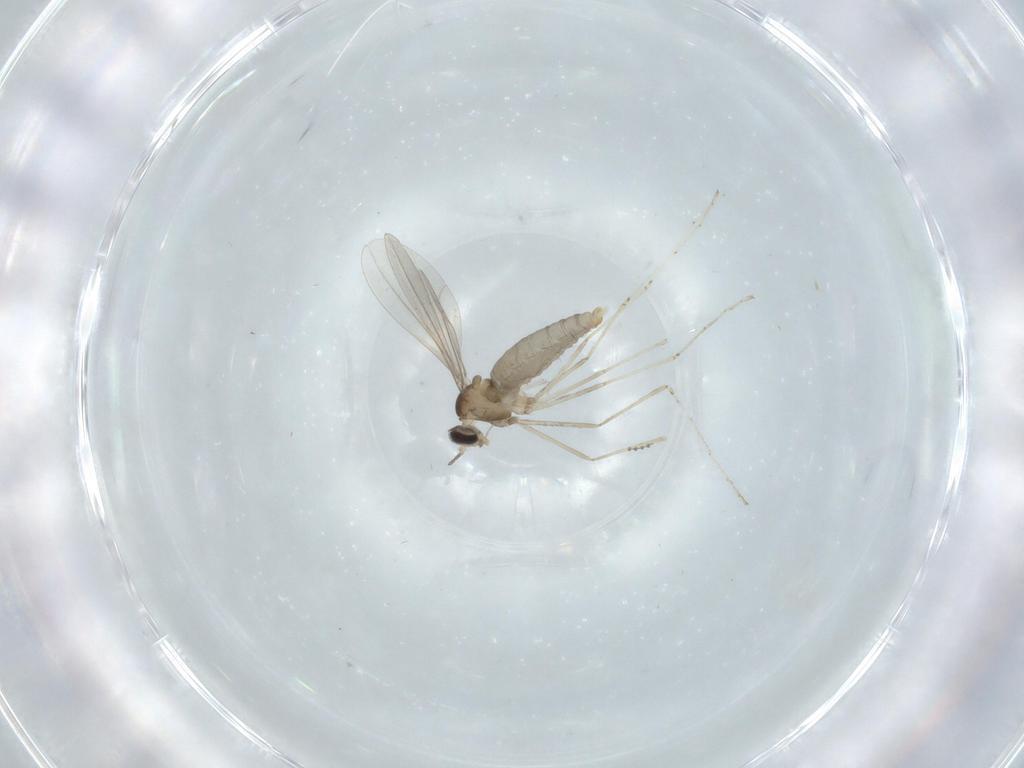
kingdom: Animalia
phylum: Arthropoda
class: Insecta
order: Diptera
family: Cecidomyiidae
